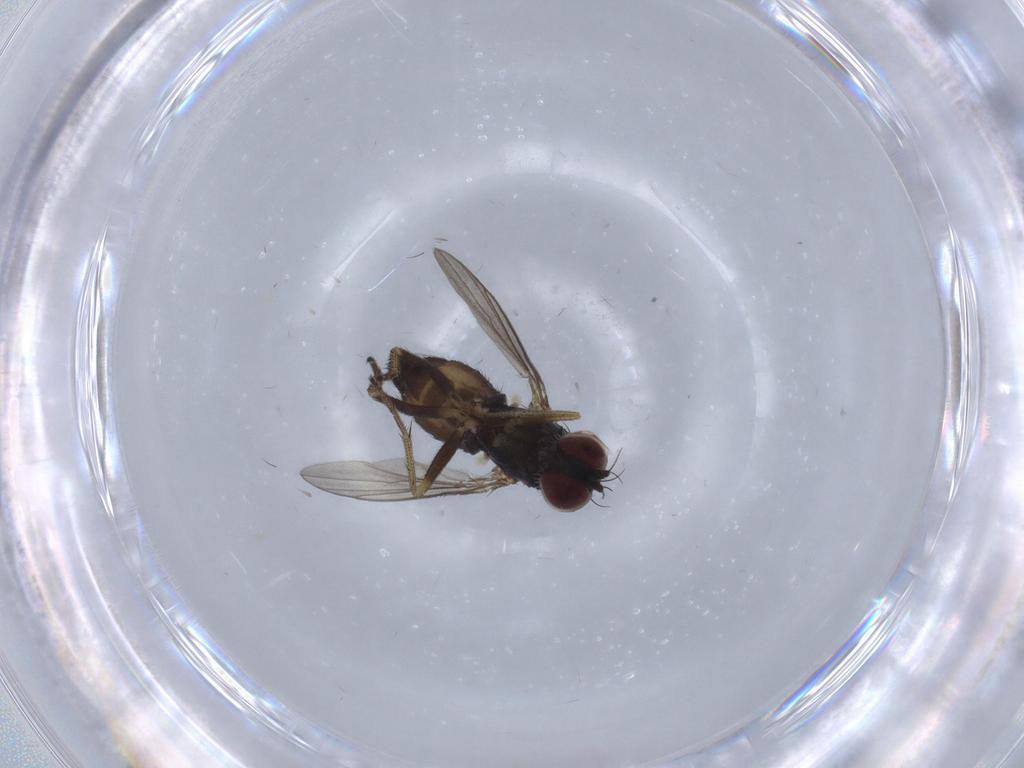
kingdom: Animalia
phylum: Arthropoda
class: Insecta
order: Diptera
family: Dolichopodidae
